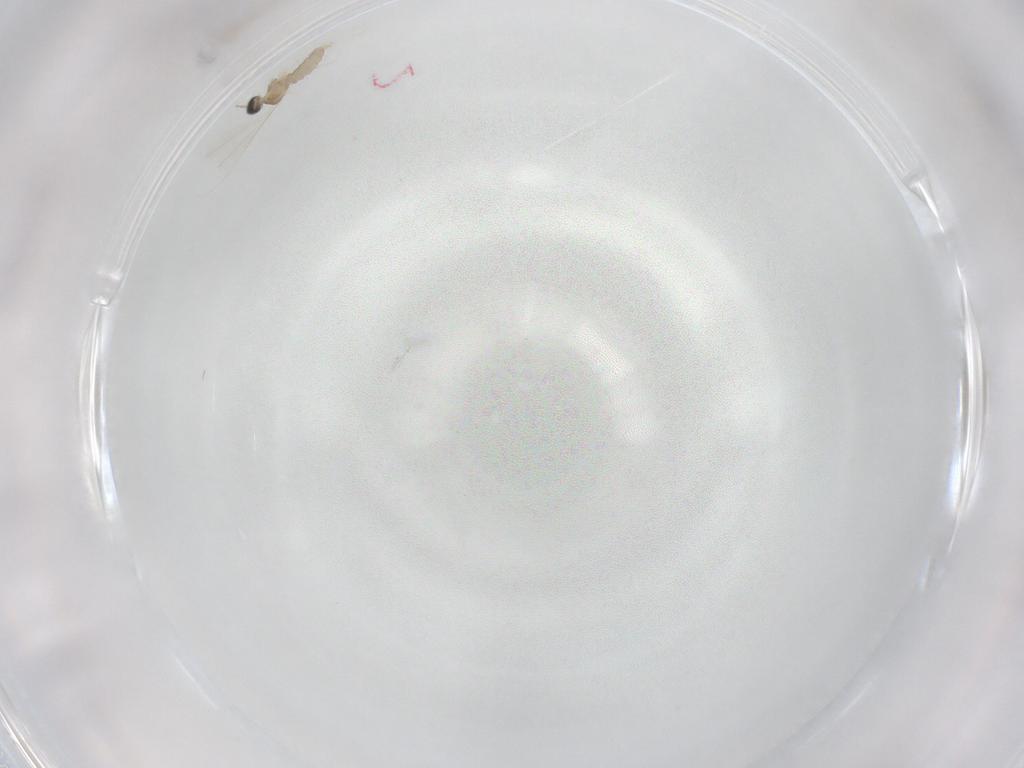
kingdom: Animalia
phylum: Arthropoda
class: Insecta
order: Diptera
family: Cecidomyiidae
